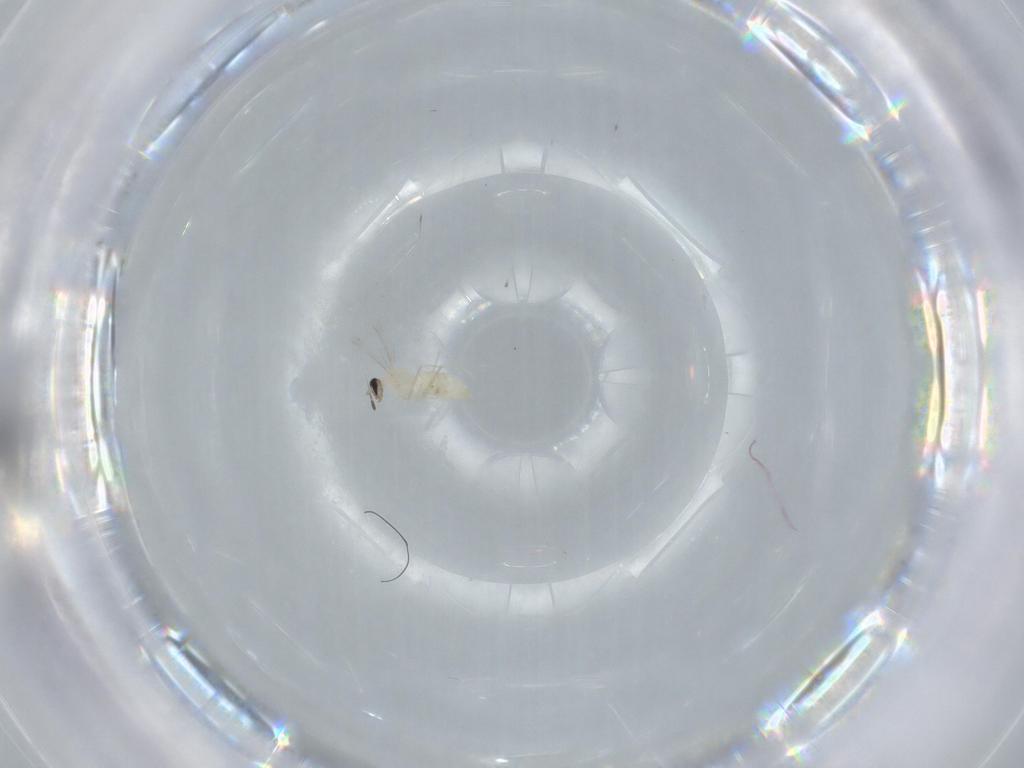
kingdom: Animalia
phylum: Arthropoda
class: Insecta
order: Diptera
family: Cecidomyiidae
